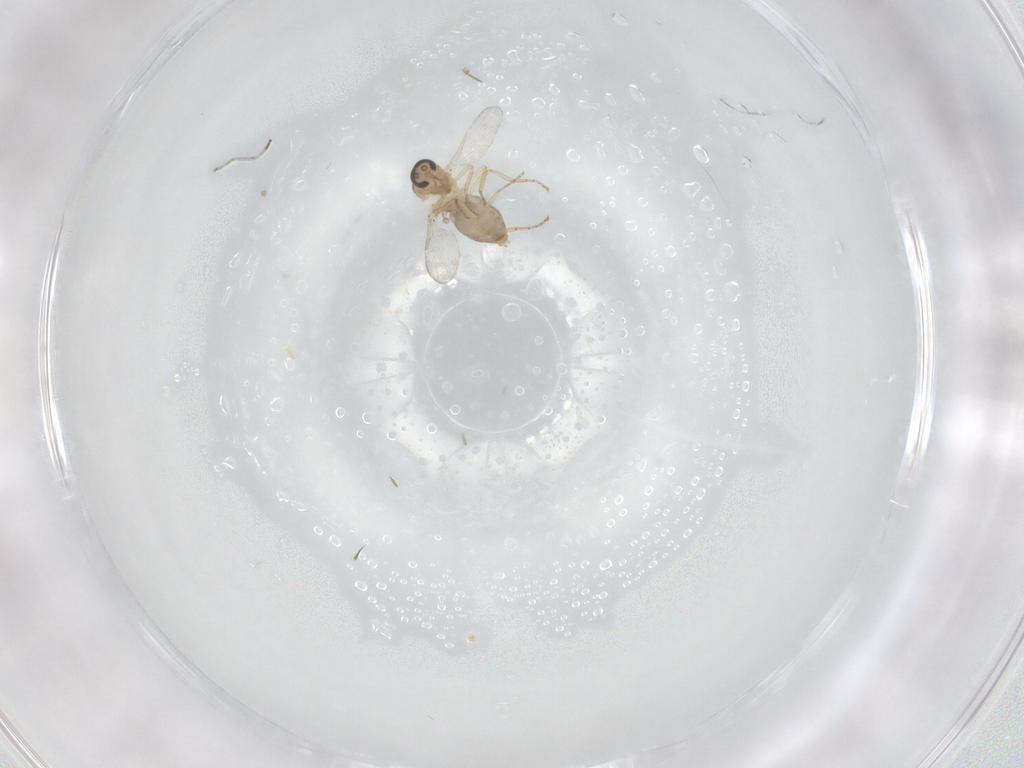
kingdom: Animalia
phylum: Arthropoda
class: Insecta
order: Diptera
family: Ceratopogonidae
